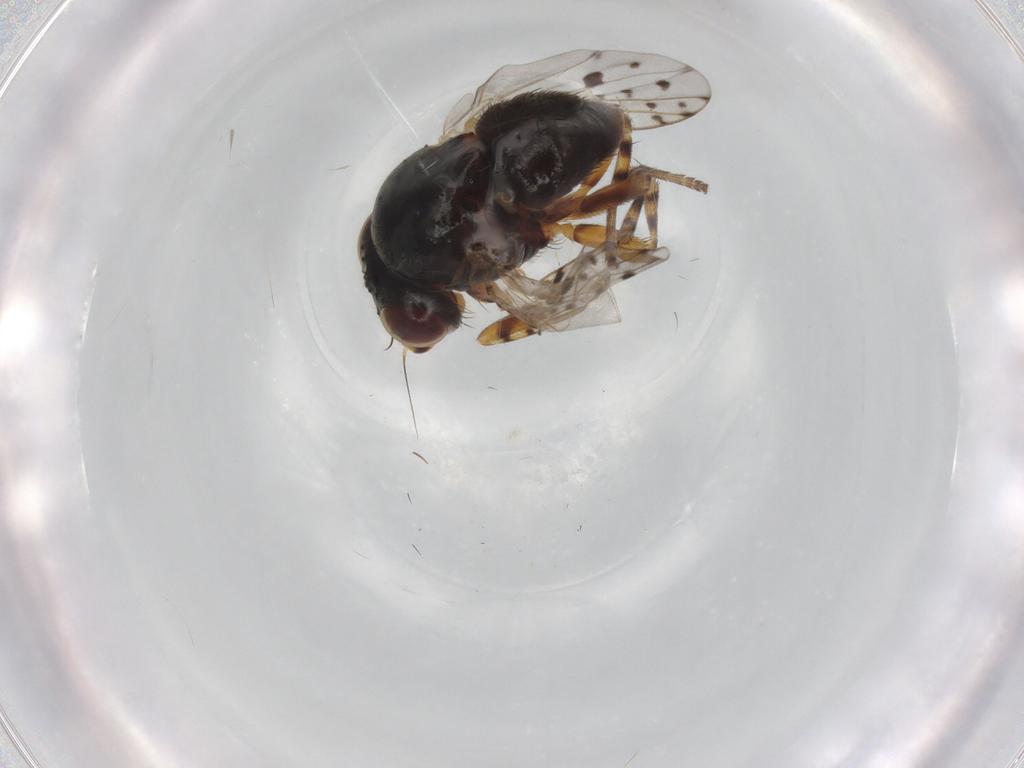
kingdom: Animalia
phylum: Arthropoda
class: Insecta
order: Diptera
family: Odiniidae
